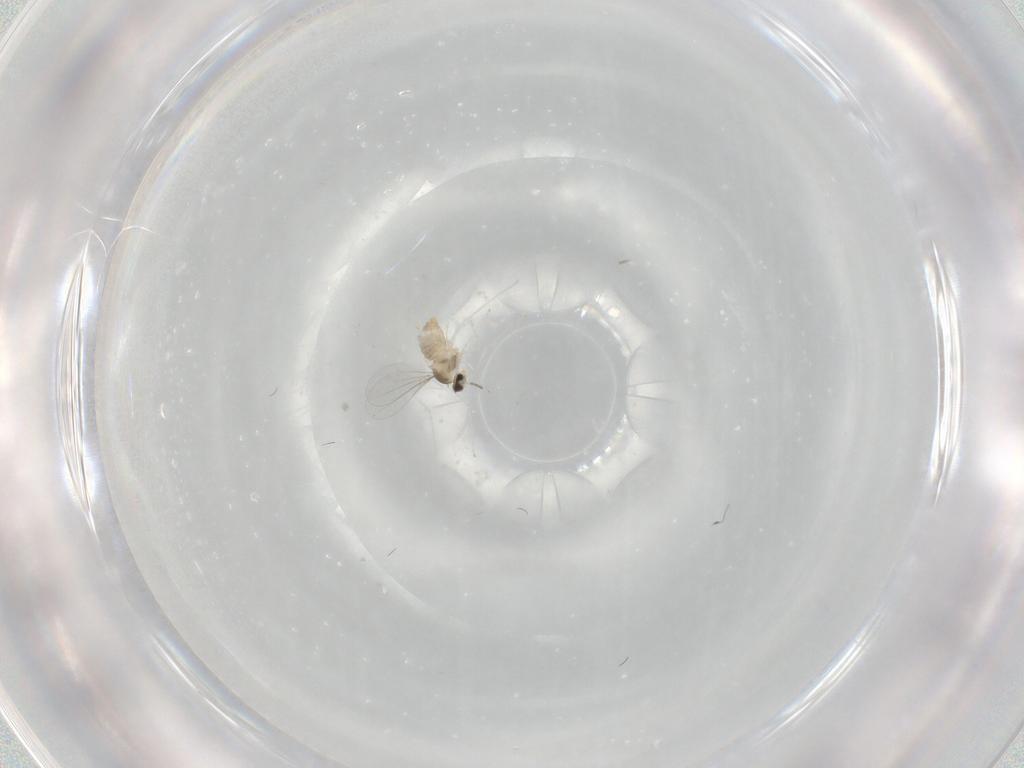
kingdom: Animalia
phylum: Arthropoda
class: Insecta
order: Diptera
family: Cecidomyiidae
